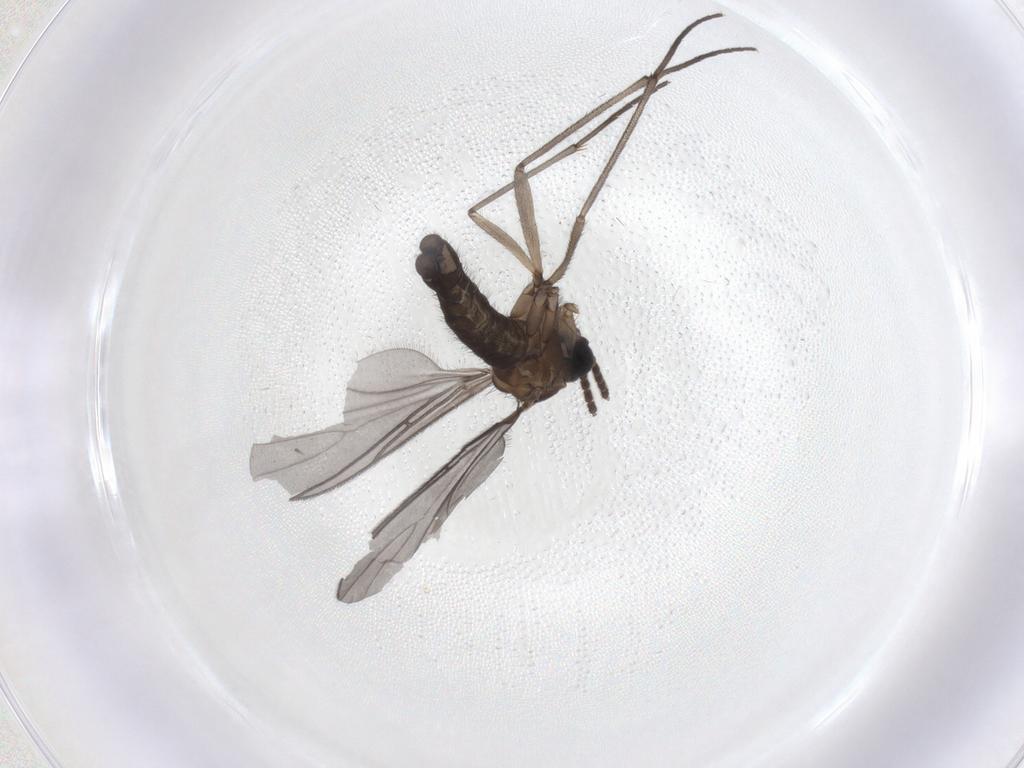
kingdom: Animalia
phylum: Arthropoda
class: Insecta
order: Diptera
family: Sciaridae
